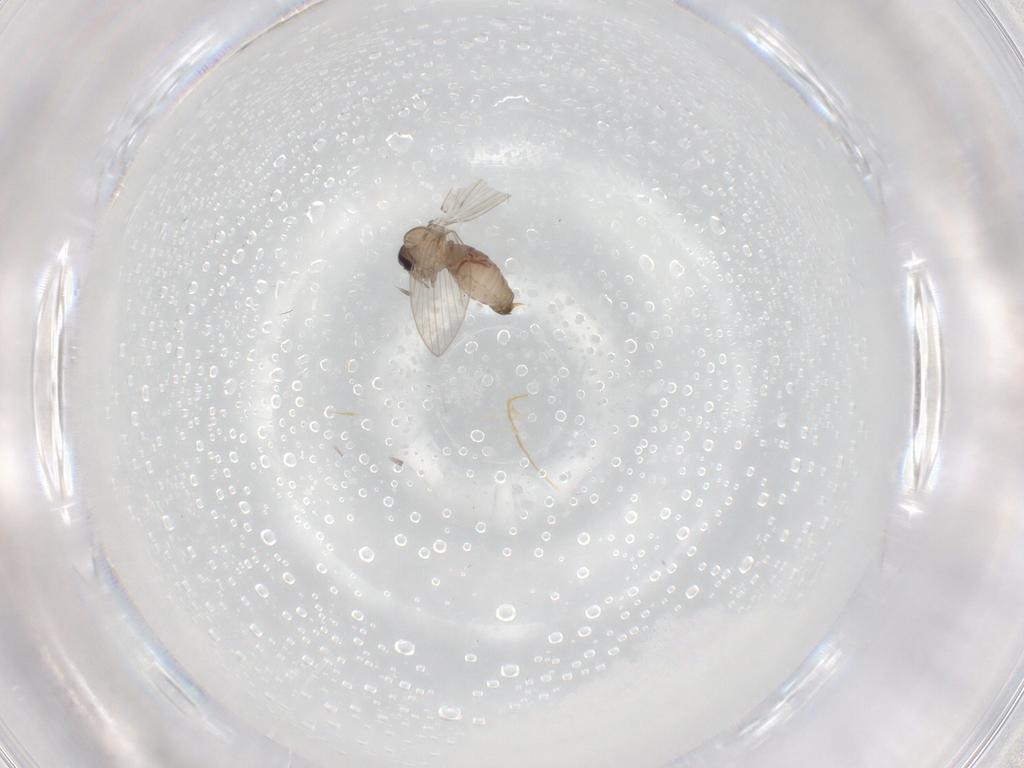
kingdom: Animalia
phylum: Arthropoda
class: Insecta
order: Diptera
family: Psychodidae
